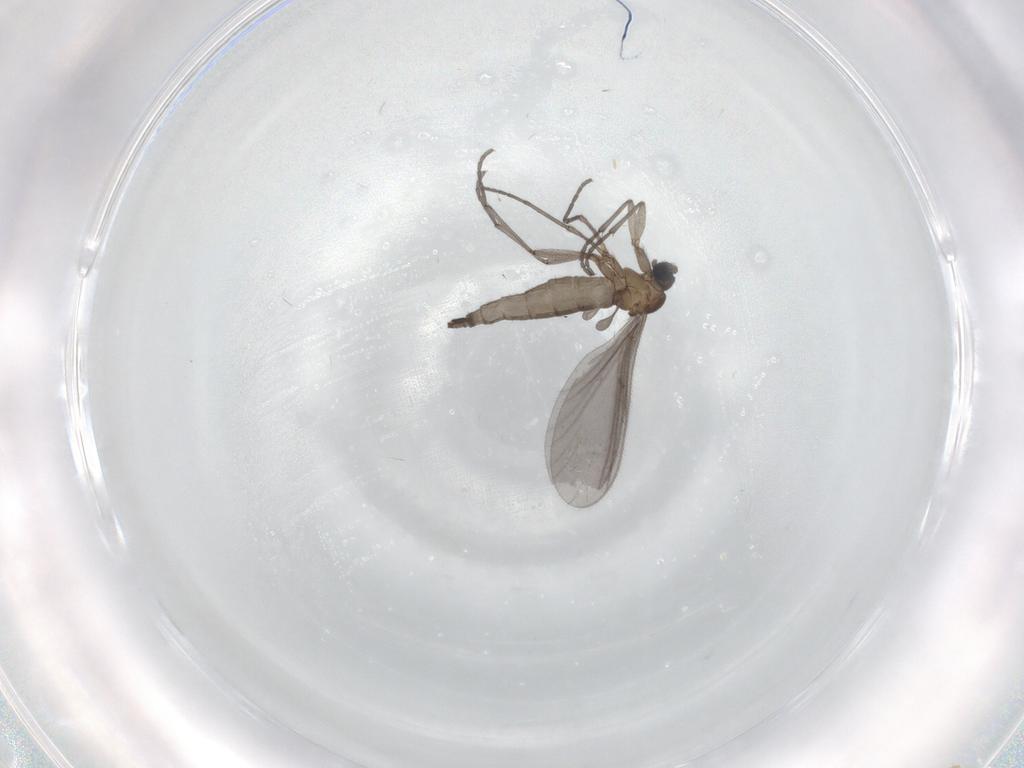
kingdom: Animalia
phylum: Arthropoda
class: Insecta
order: Diptera
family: Sciaridae
